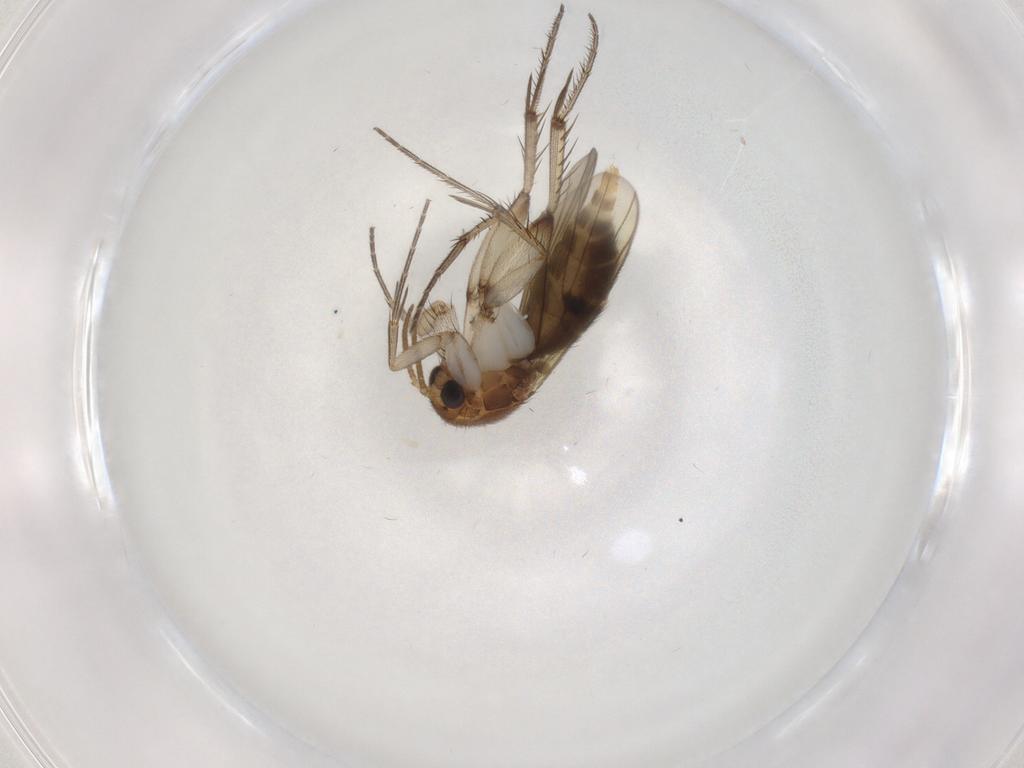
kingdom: Animalia
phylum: Arthropoda
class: Insecta
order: Diptera
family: Mycetophilidae
